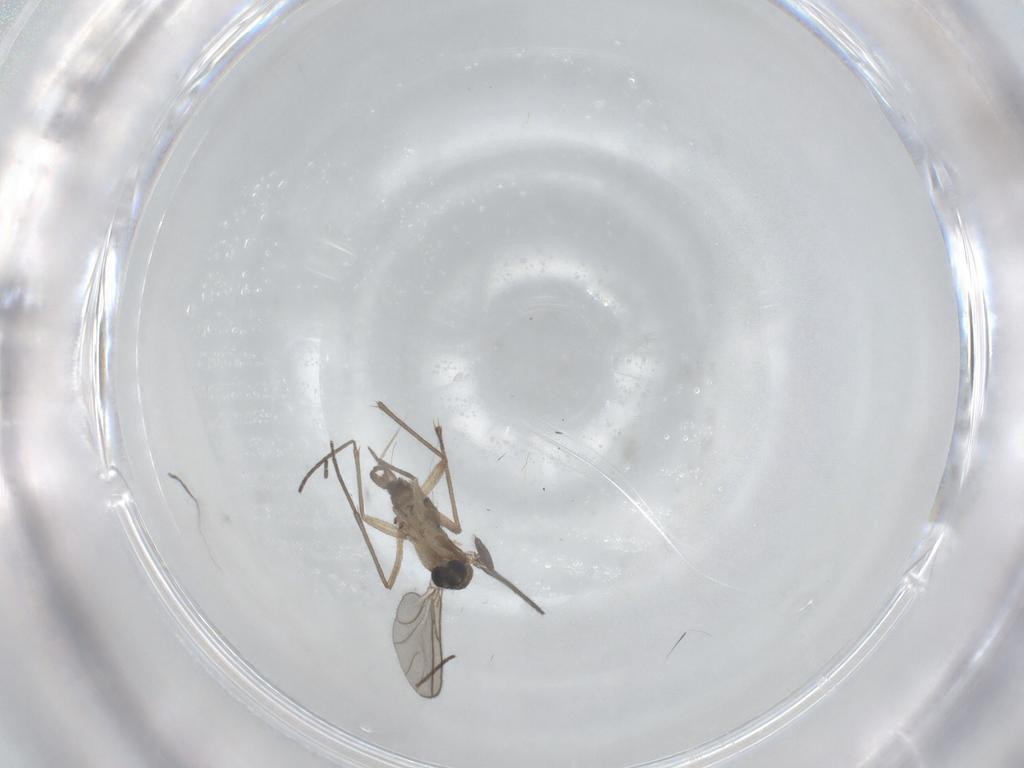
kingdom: Animalia
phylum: Arthropoda
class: Insecta
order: Diptera
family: Sciaridae
